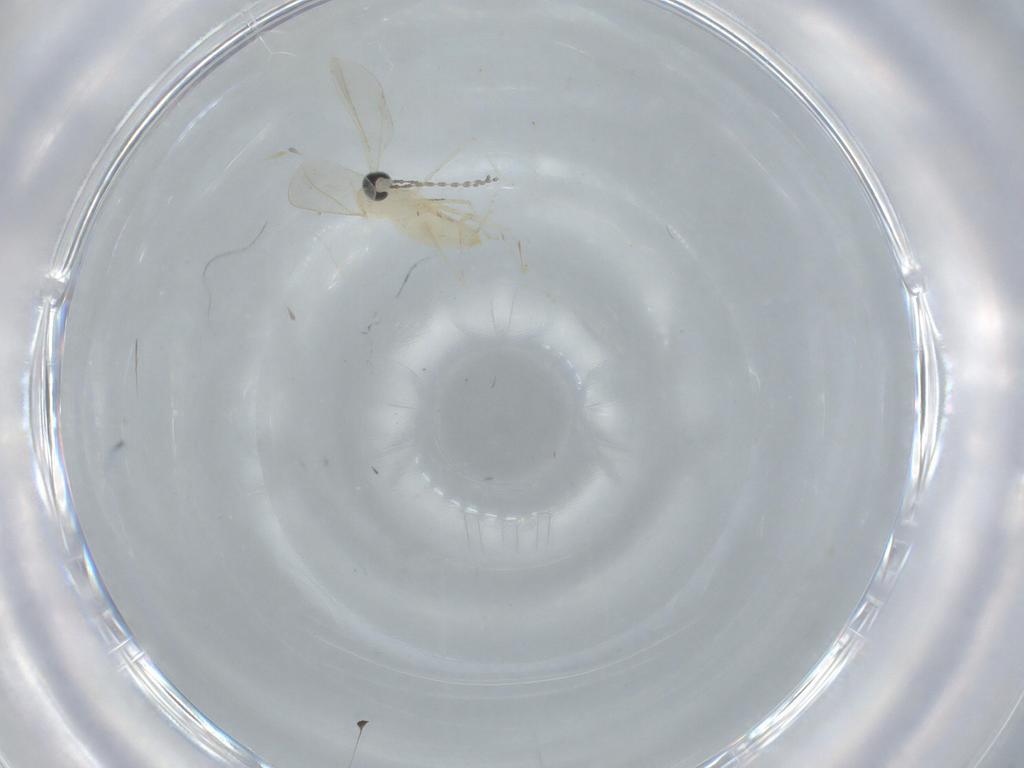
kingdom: Animalia
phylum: Arthropoda
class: Insecta
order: Diptera
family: Cecidomyiidae
